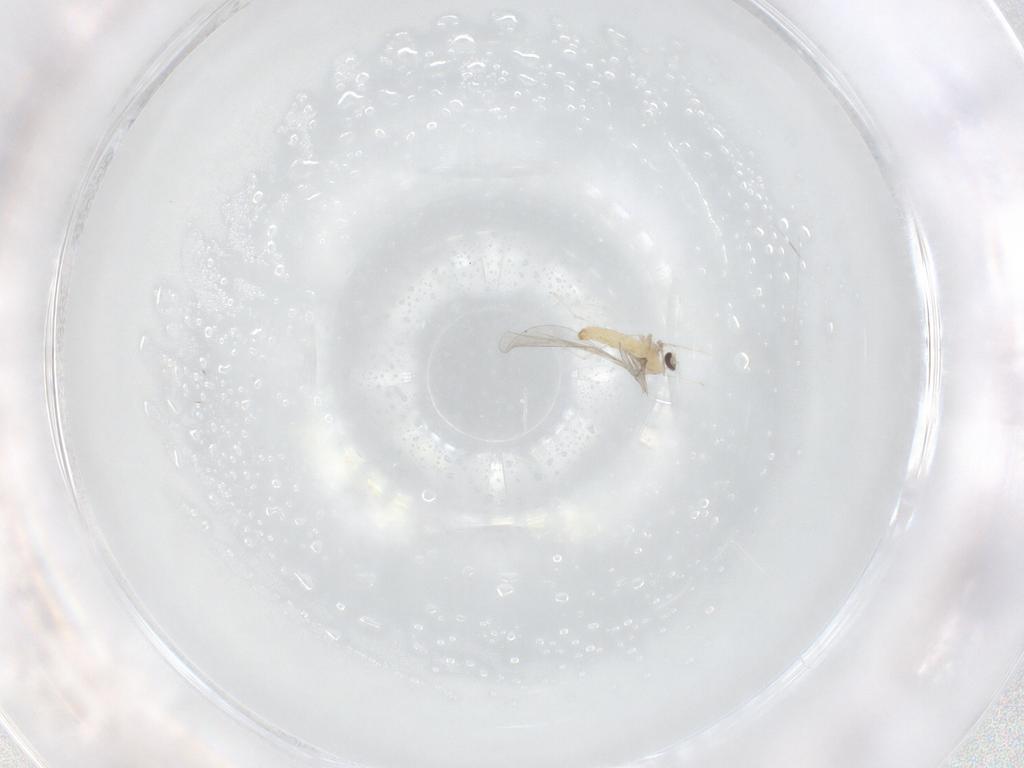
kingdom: Animalia
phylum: Arthropoda
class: Insecta
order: Diptera
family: Cecidomyiidae
